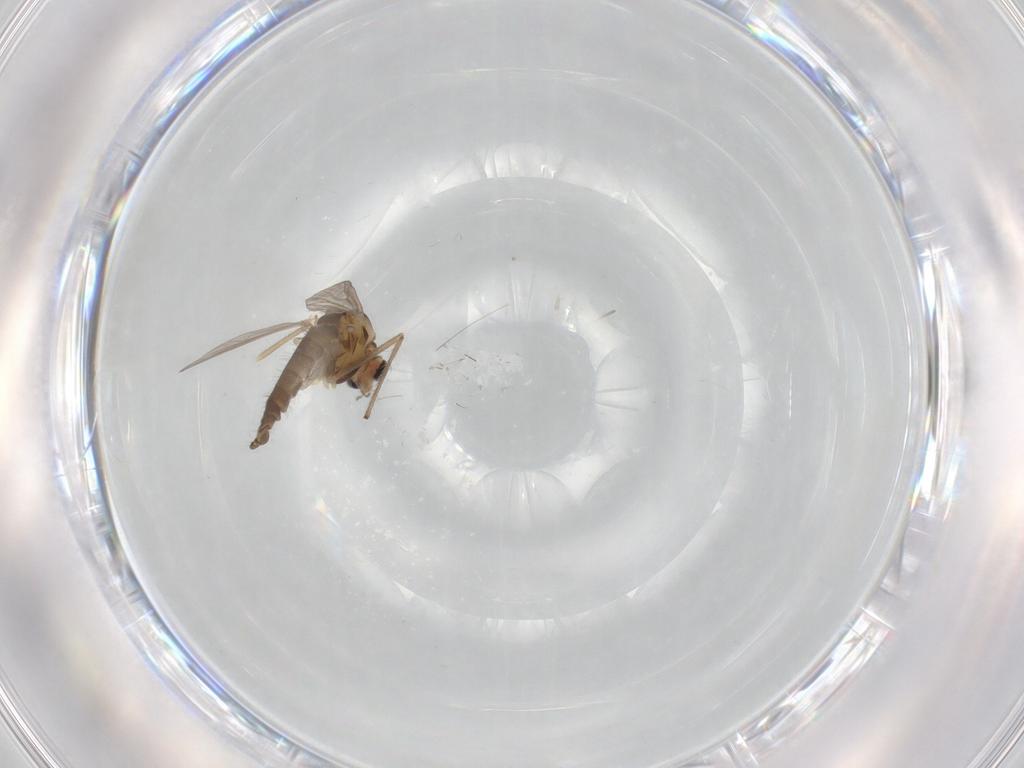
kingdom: Animalia
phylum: Arthropoda
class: Insecta
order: Diptera
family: Chironomidae
